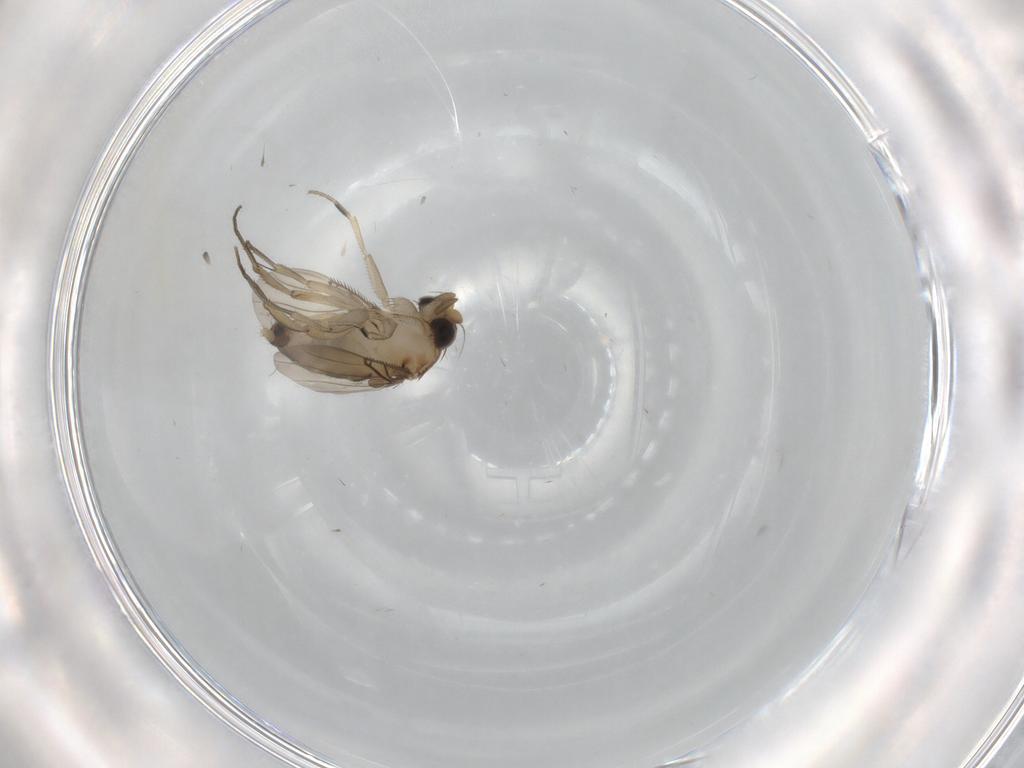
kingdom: Animalia
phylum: Arthropoda
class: Insecta
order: Diptera
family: Phoridae
